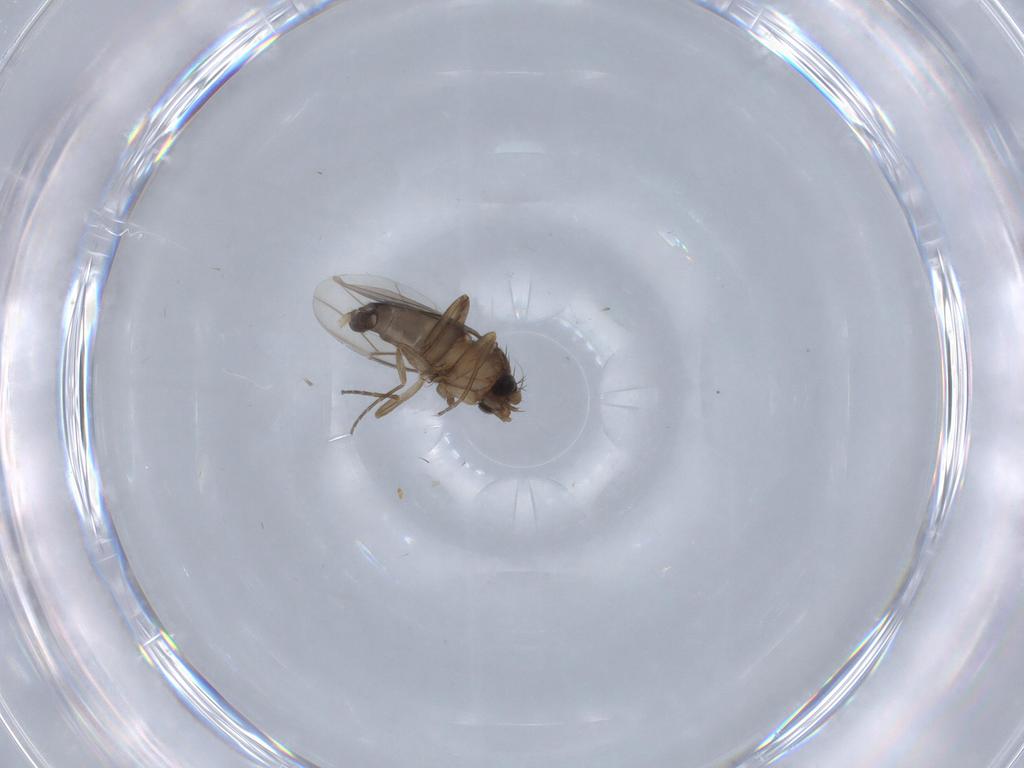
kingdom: Animalia
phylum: Arthropoda
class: Insecta
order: Diptera
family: Phoridae
